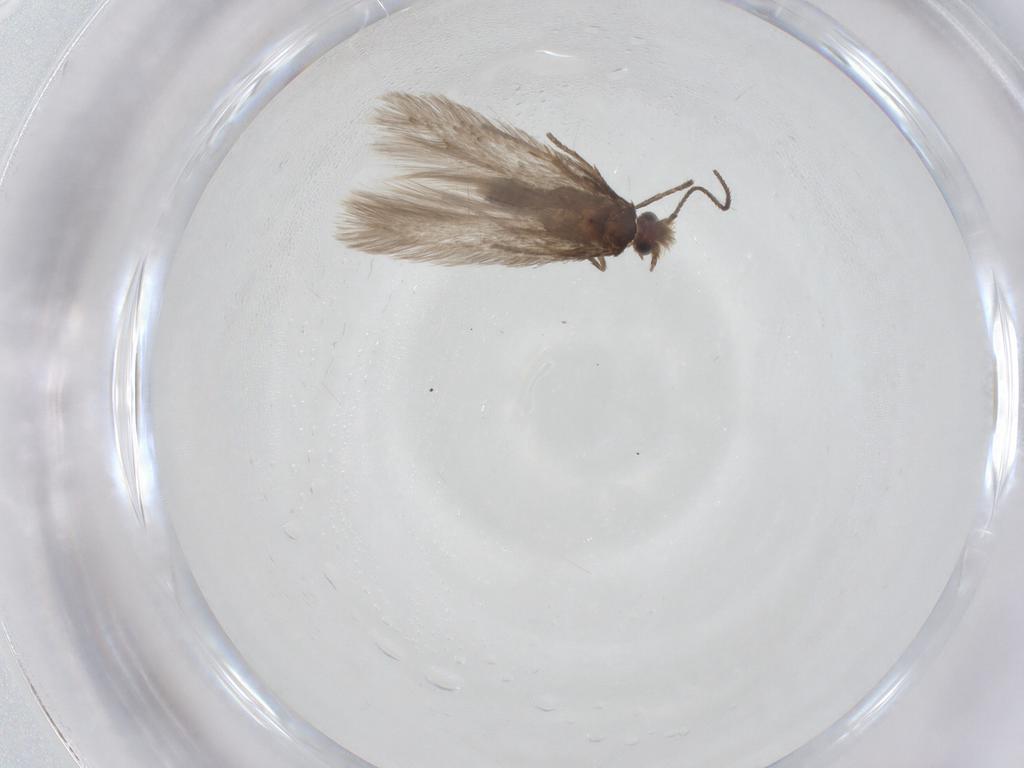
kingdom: Animalia
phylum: Arthropoda
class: Insecta
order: Lepidoptera
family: Nepticulidae
